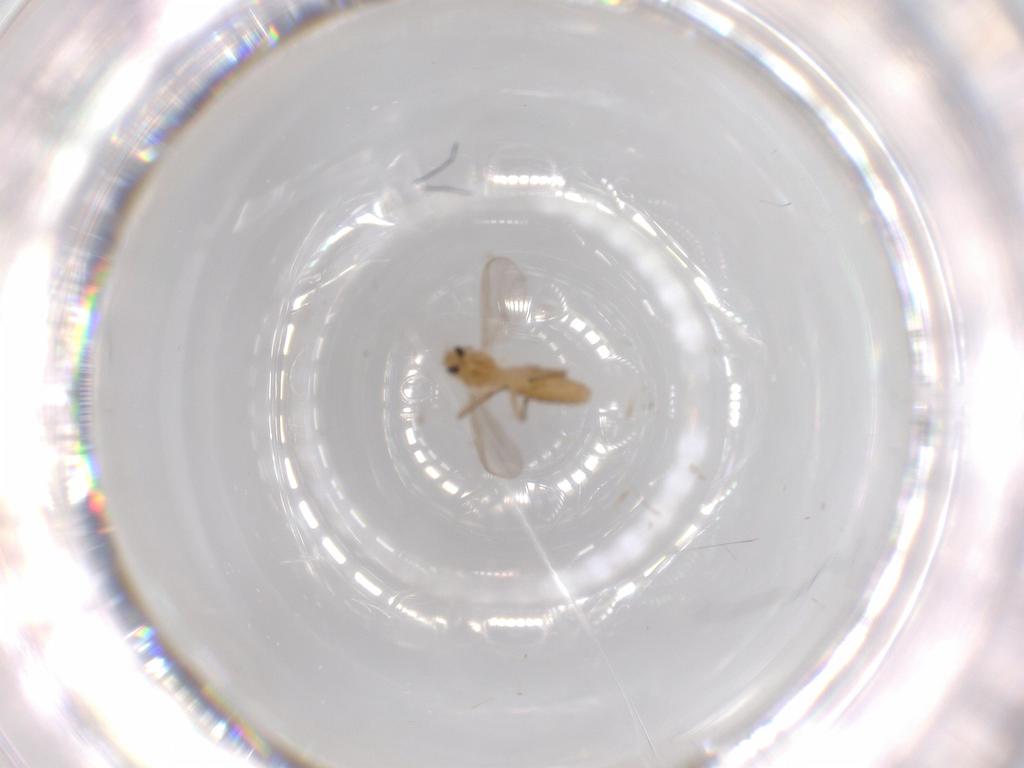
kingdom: Animalia
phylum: Arthropoda
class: Insecta
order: Diptera
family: Chironomidae
